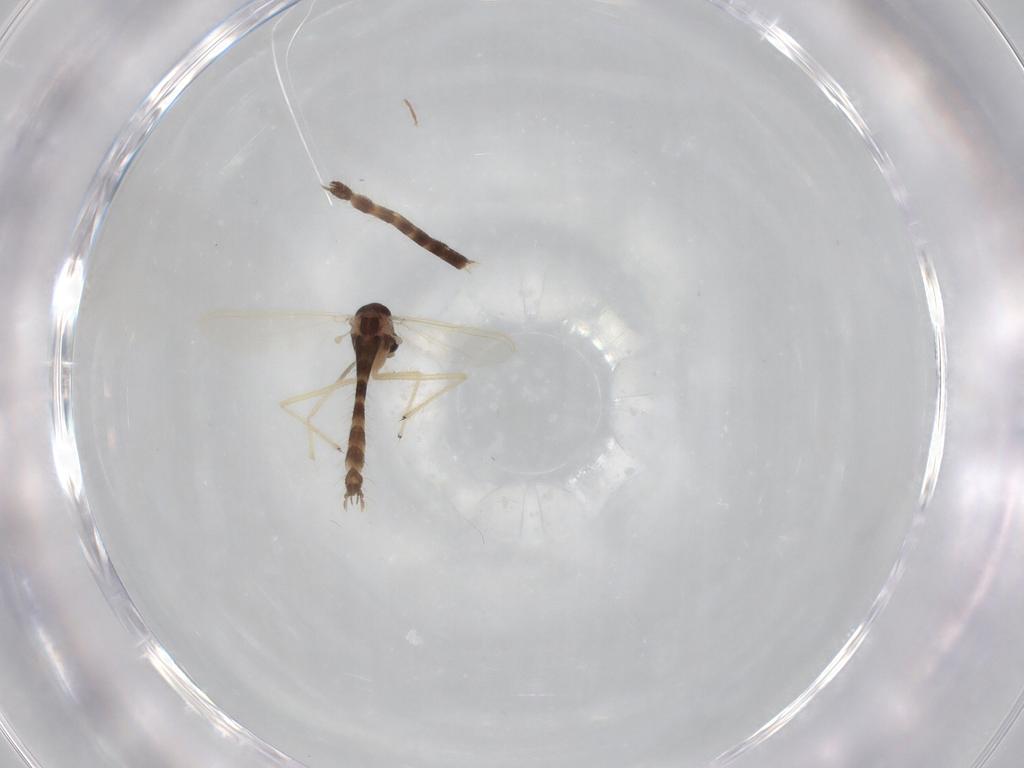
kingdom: Animalia
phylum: Arthropoda
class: Insecta
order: Diptera
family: Chironomidae
